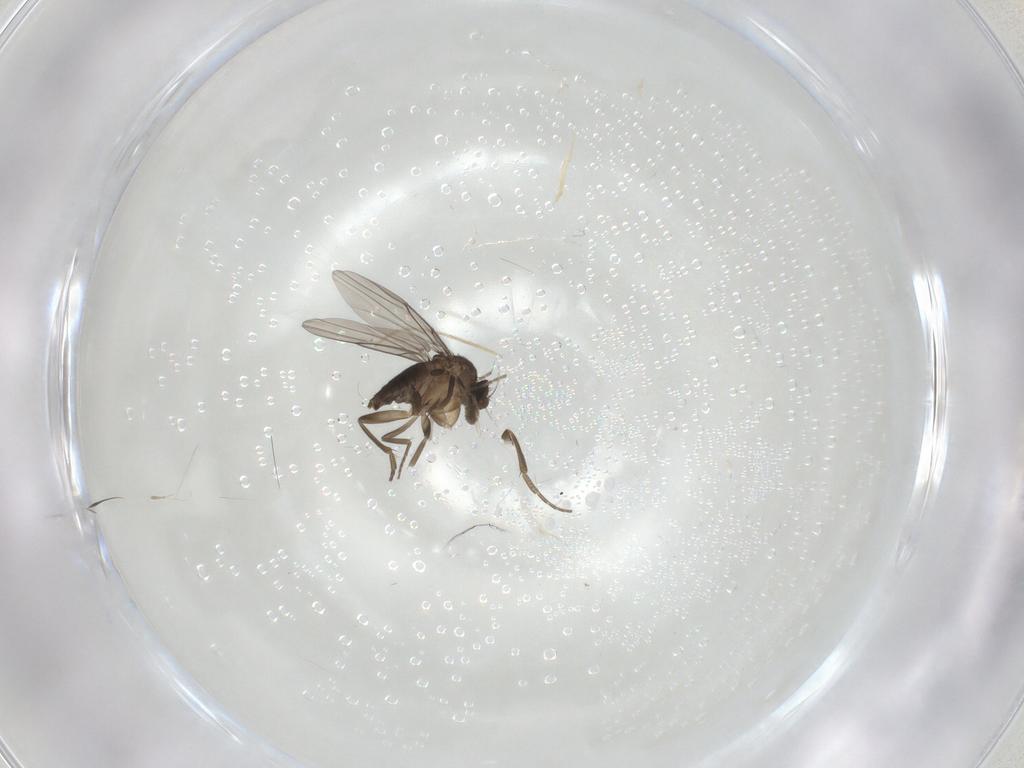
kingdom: Animalia
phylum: Arthropoda
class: Insecta
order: Diptera
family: Phoridae
